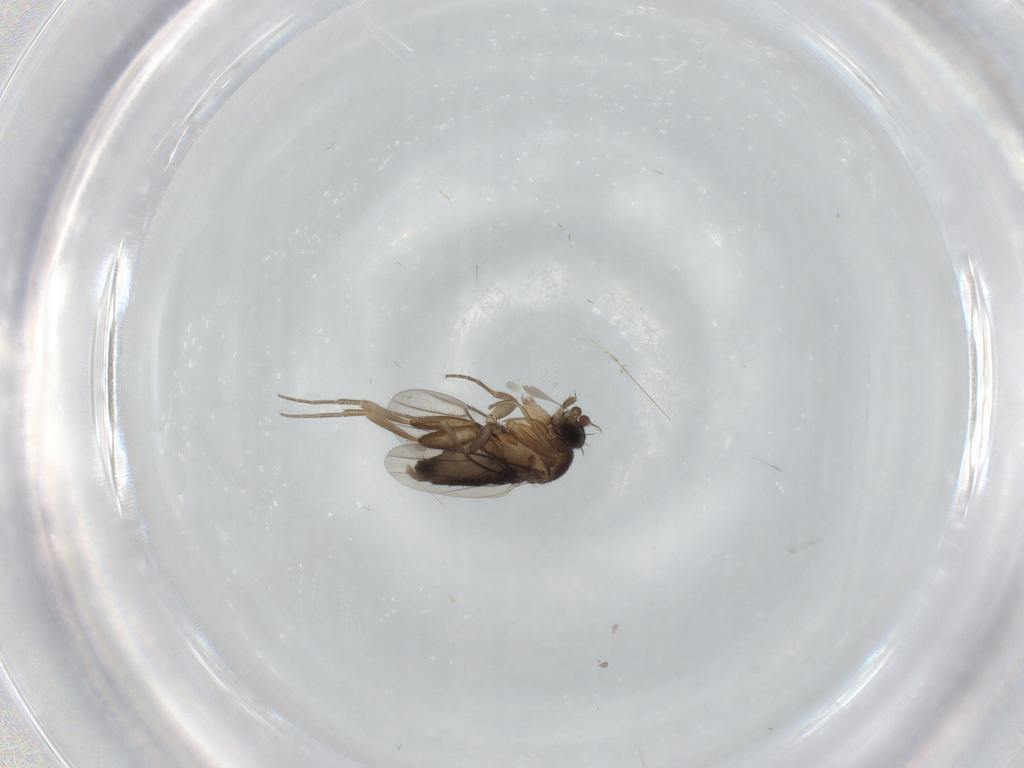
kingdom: Animalia
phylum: Arthropoda
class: Insecta
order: Diptera
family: Phoridae
